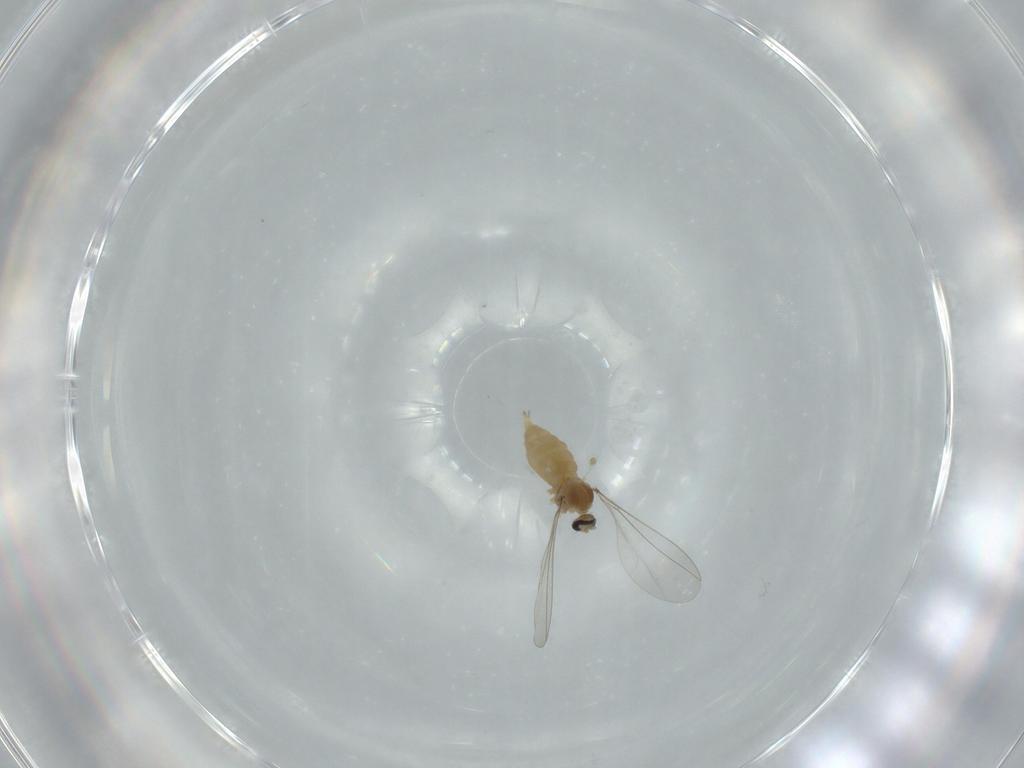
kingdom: Animalia
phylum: Arthropoda
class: Insecta
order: Diptera
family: Cecidomyiidae
